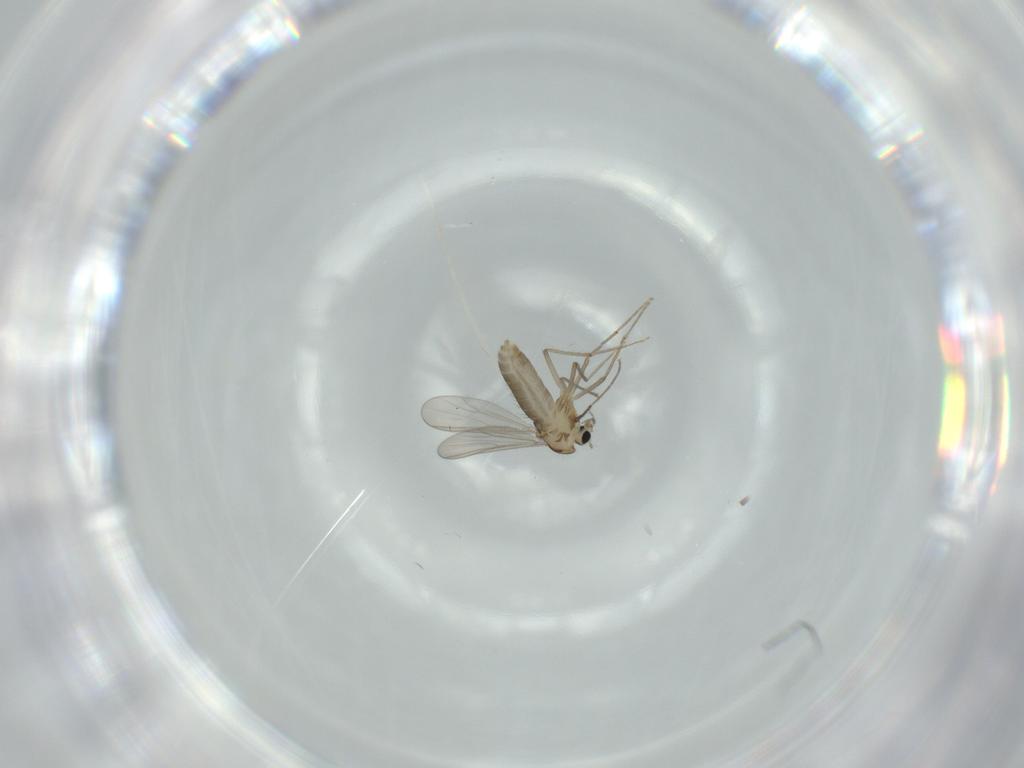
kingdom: Animalia
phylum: Arthropoda
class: Insecta
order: Diptera
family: Chironomidae
